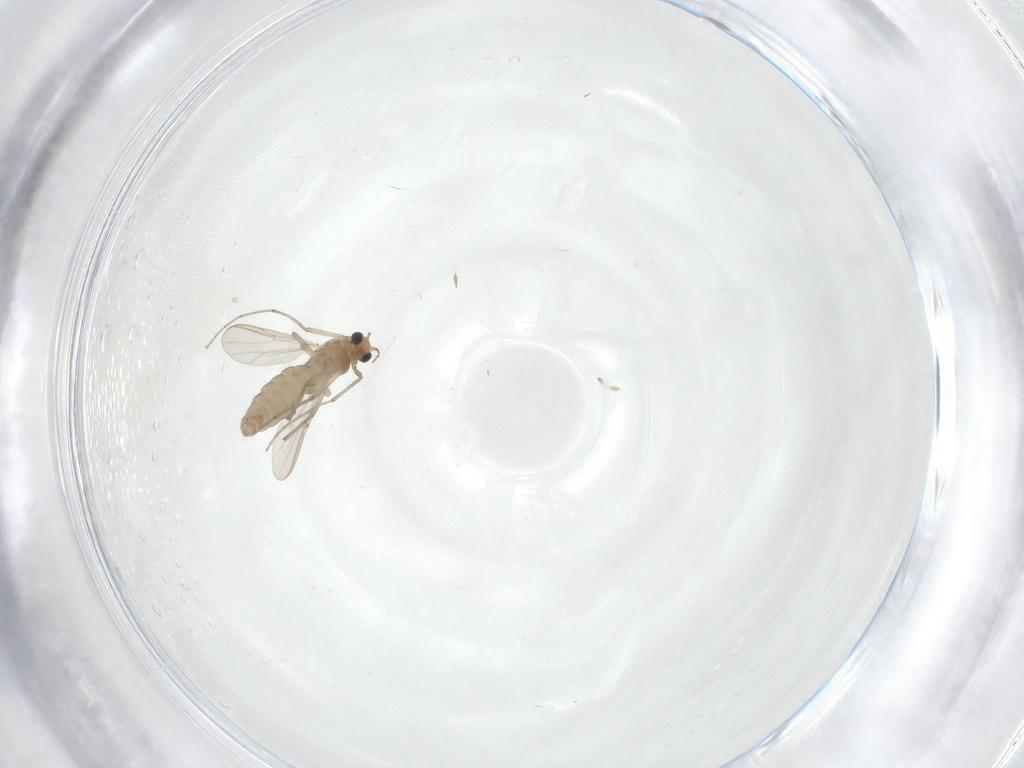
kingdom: Animalia
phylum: Arthropoda
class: Insecta
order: Diptera
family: Chironomidae
